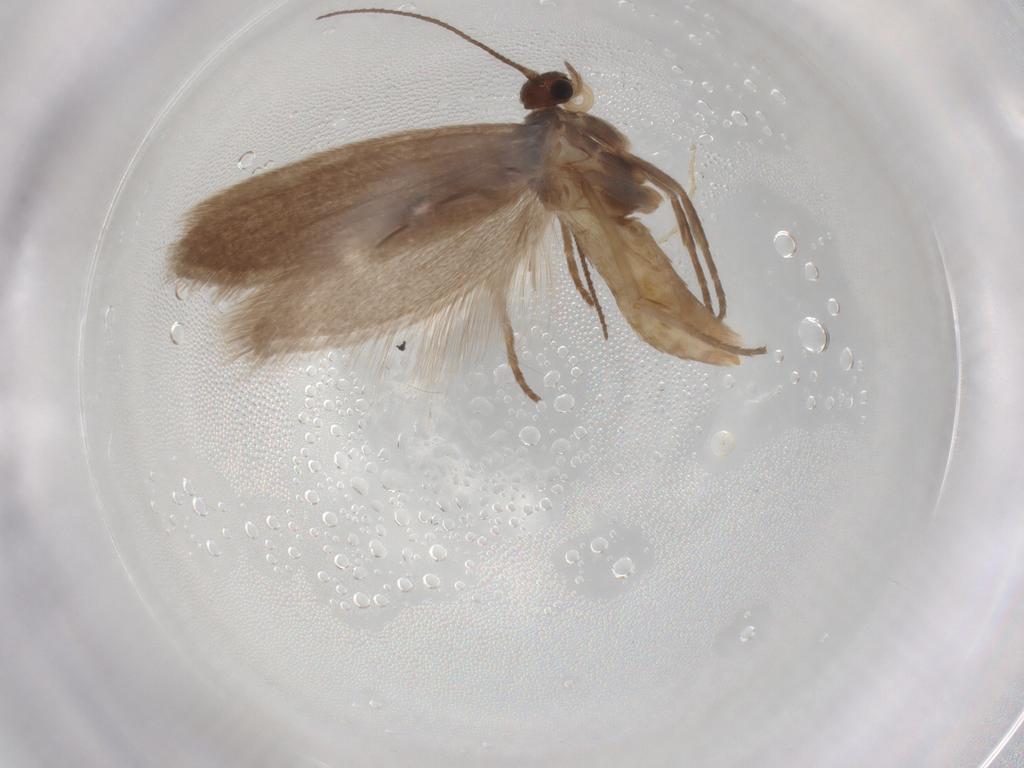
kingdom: Animalia
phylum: Arthropoda
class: Insecta
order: Lepidoptera
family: Limacodidae
